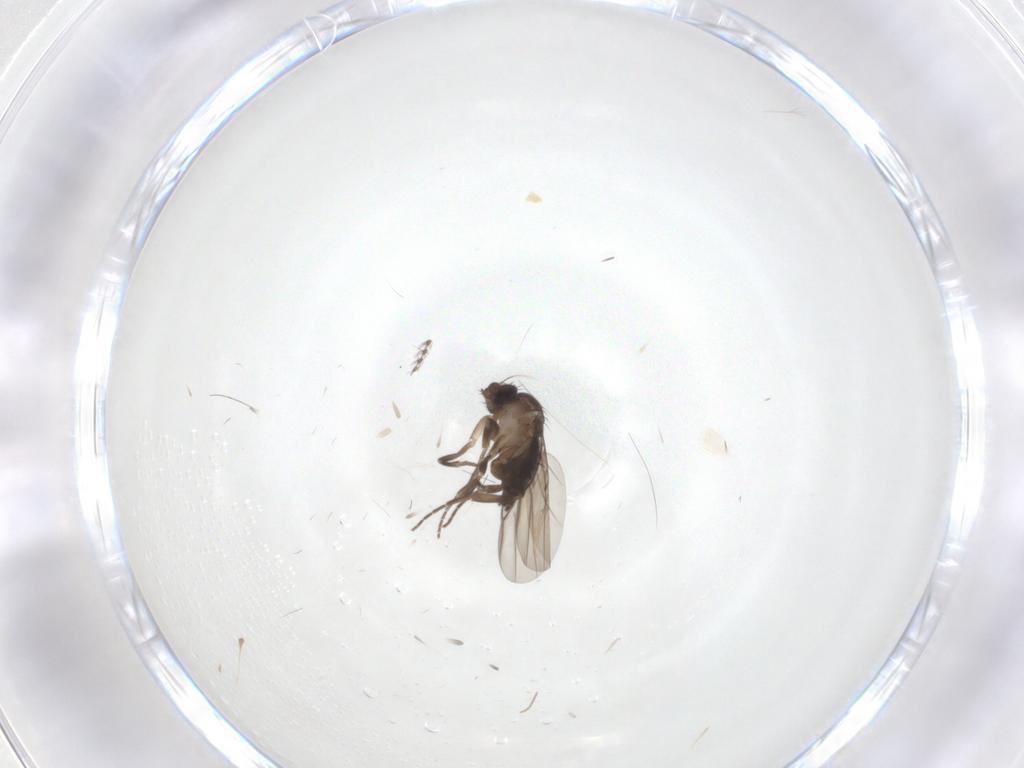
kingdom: Animalia
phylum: Arthropoda
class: Insecta
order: Diptera
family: Phoridae
